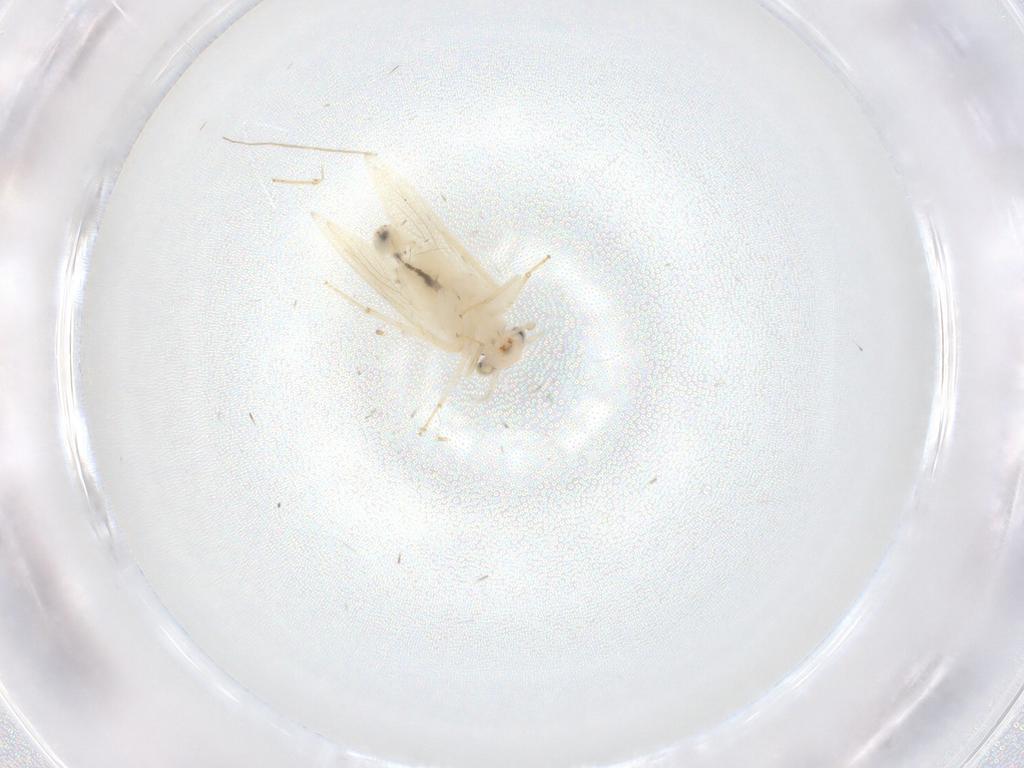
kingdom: Animalia
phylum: Arthropoda
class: Insecta
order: Psocodea
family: Lepidopsocidae
